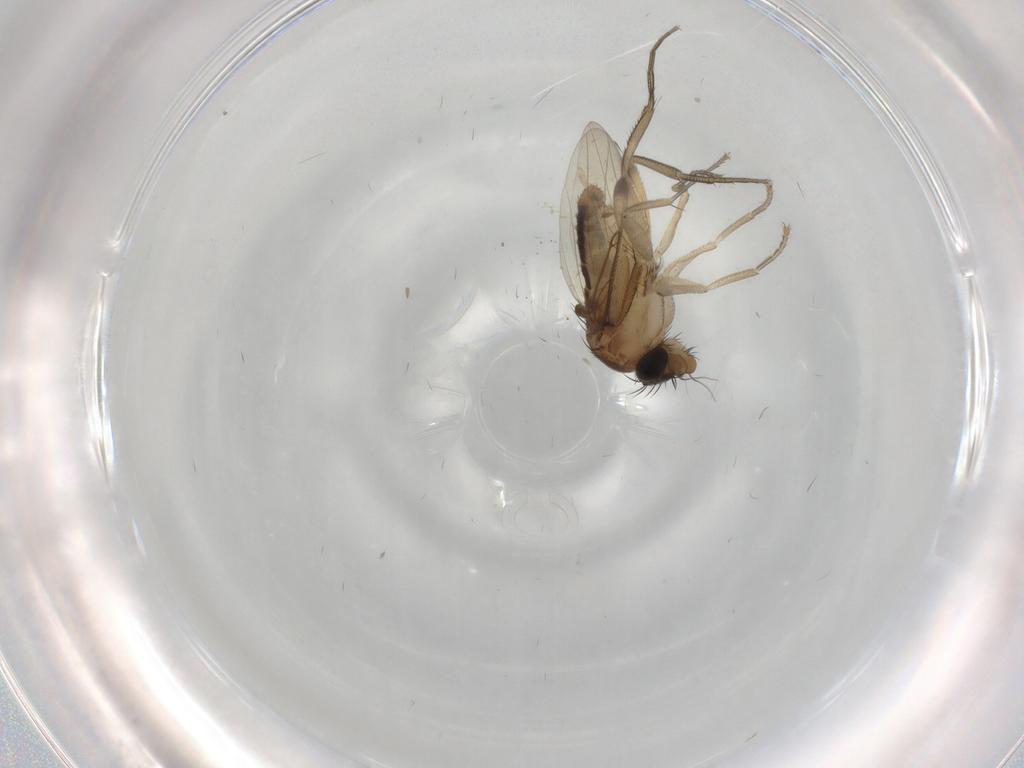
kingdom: Animalia
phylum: Arthropoda
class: Insecta
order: Diptera
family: Phoridae
